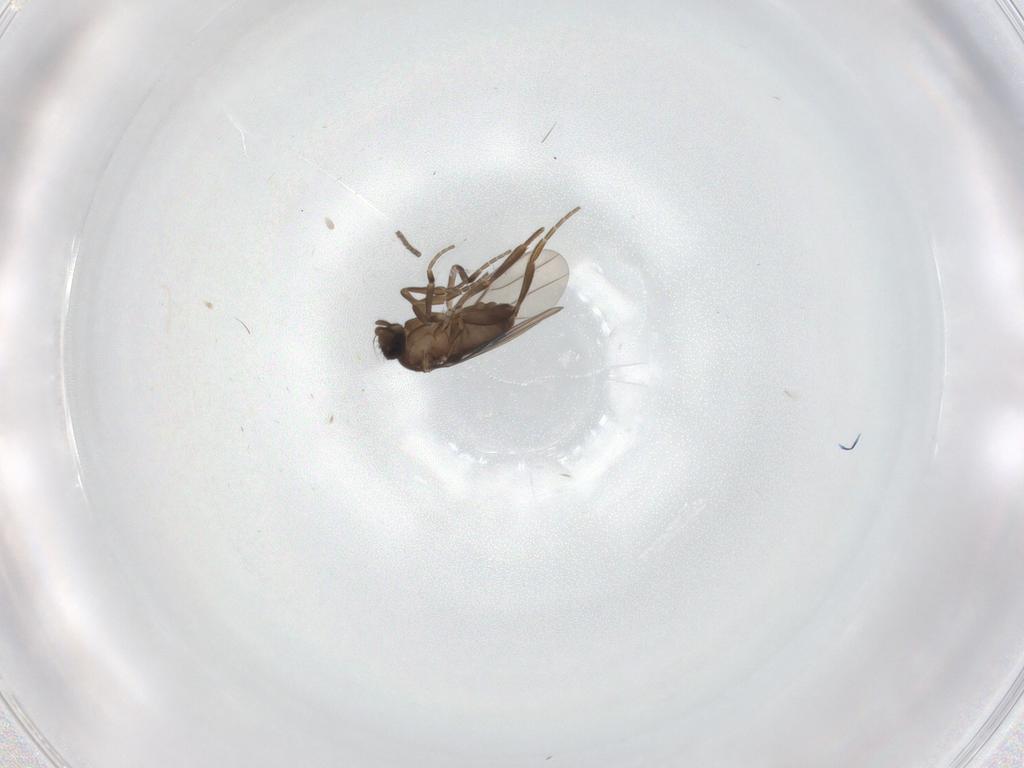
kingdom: Animalia
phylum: Arthropoda
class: Insecta
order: Diptera
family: Phoridae
